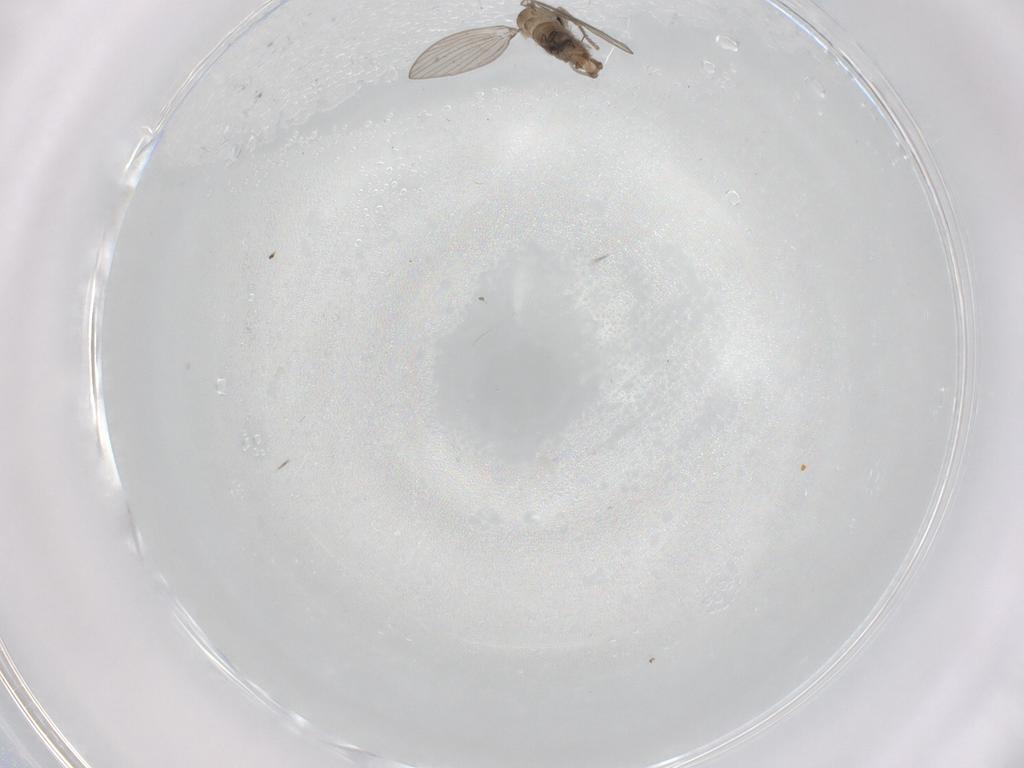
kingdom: Animalia
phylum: Arthropoda
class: Insecta
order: Diptera
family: Psychodidae
